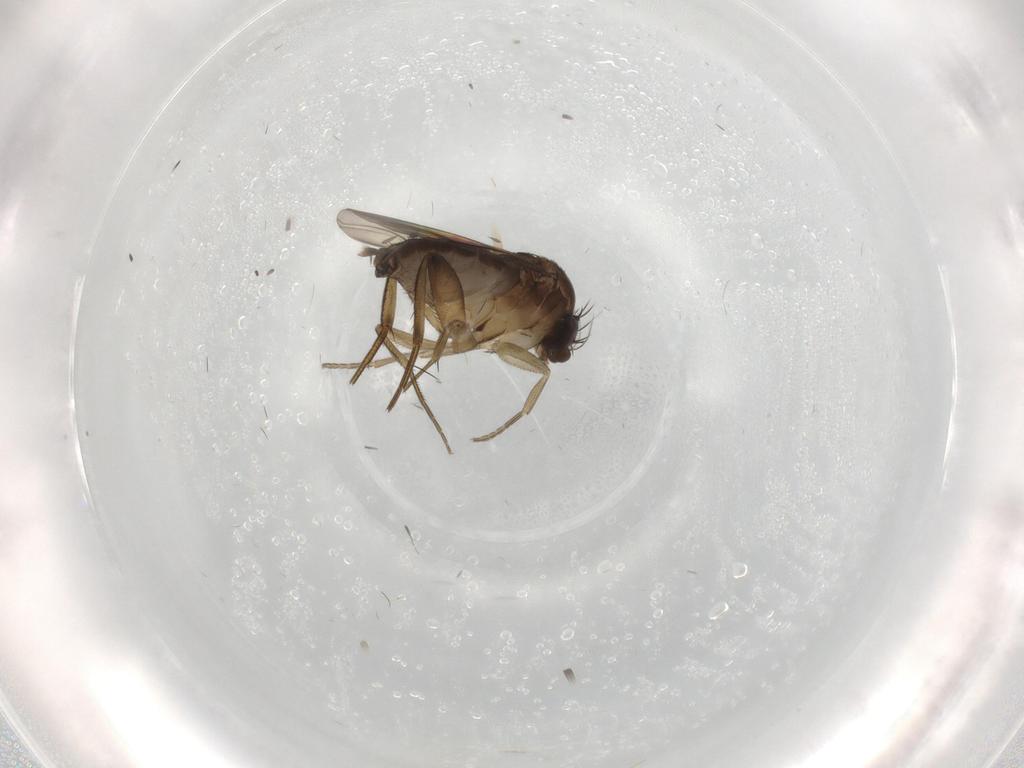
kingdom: Animalia
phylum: Arthropoda
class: Insecta
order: Diptera
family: Phoridae
